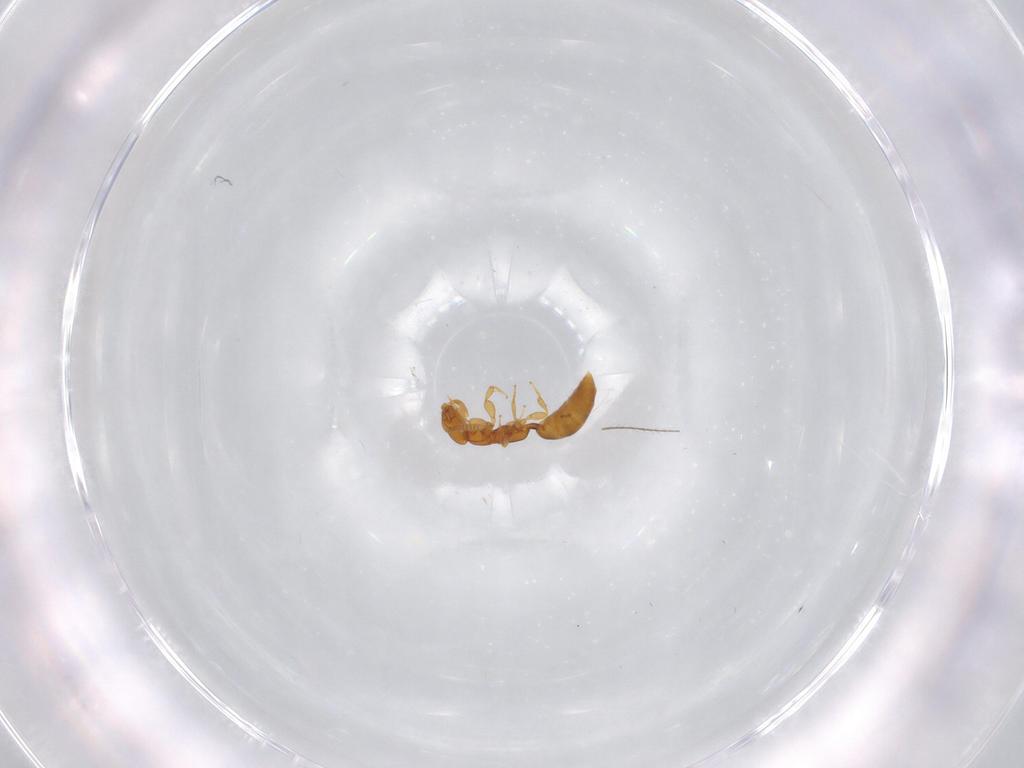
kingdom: Animalia
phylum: Arthropoda
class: Insecta
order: Hymenoptera
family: Bethylidae
